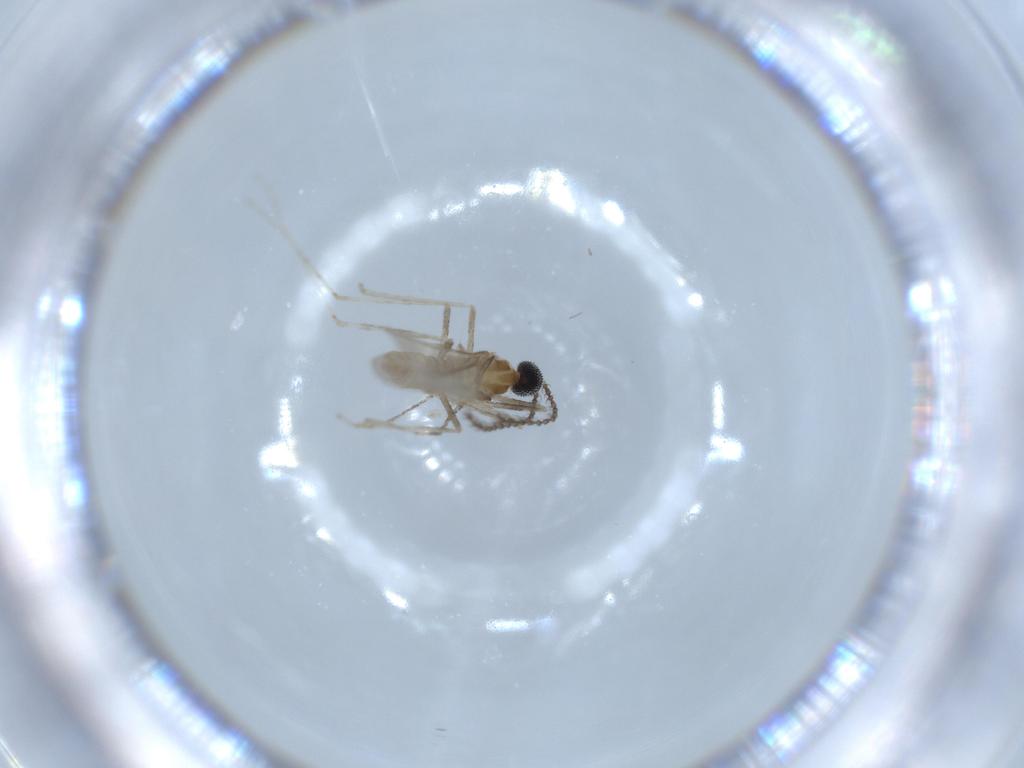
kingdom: Animalia
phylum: Arthropoda
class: Insecta
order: Diptera
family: Cecidomyiidae
